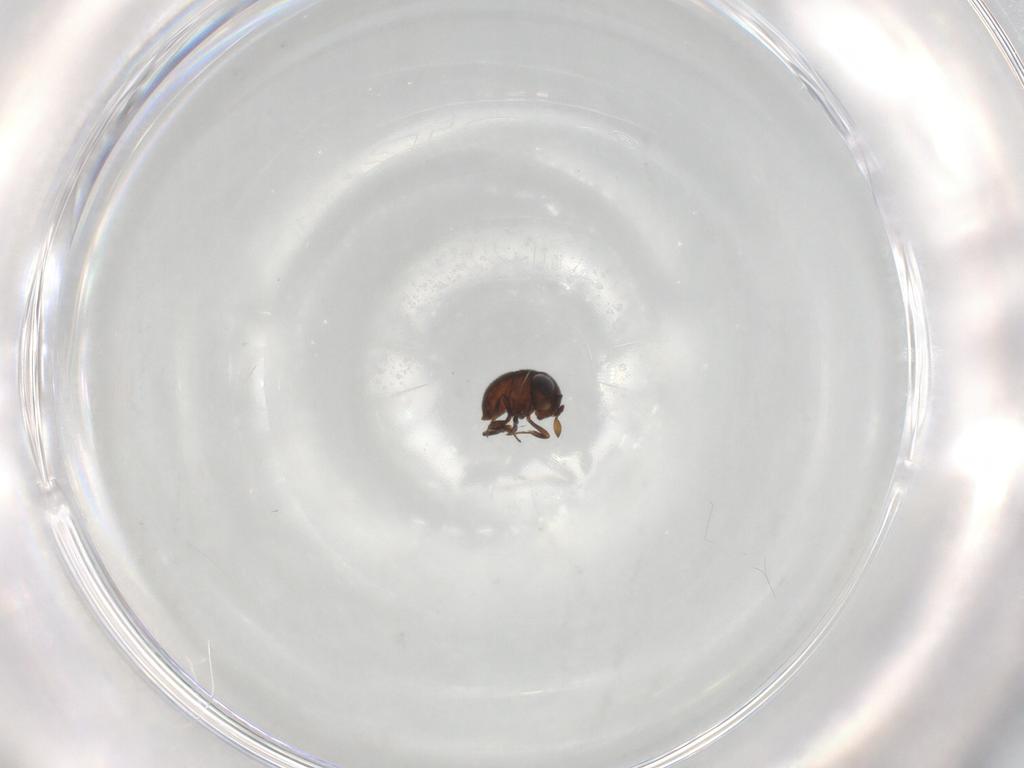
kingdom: Animalia
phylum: Arthropoda
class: Insecta
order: Hymenoptera
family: Scelionidae
